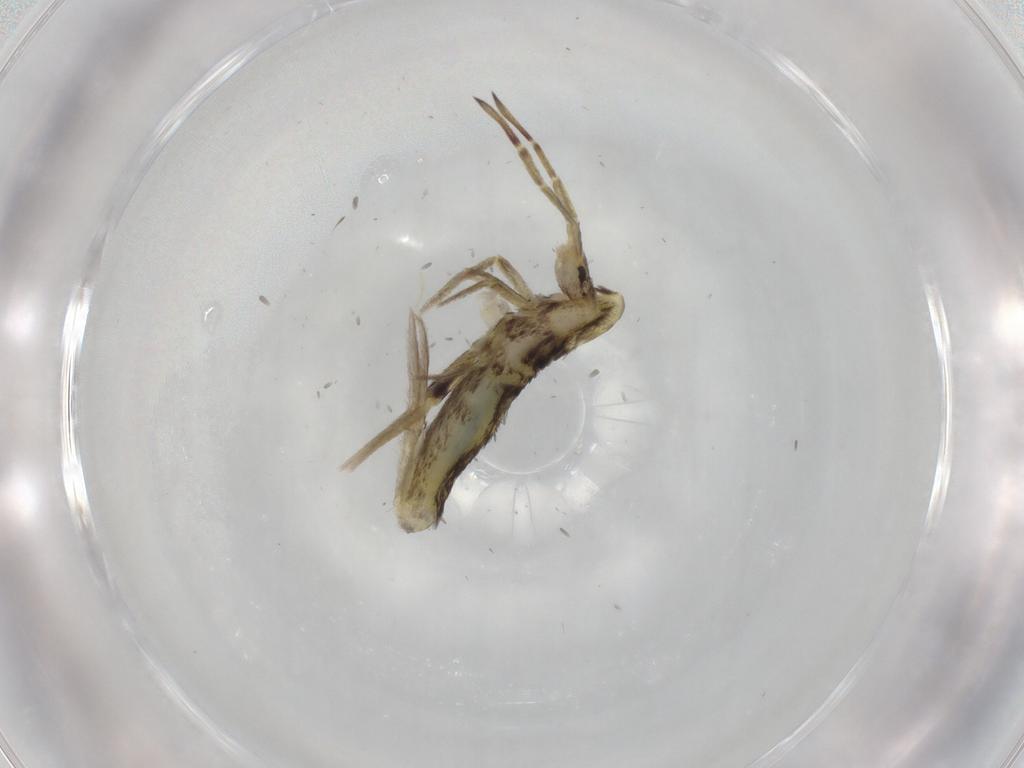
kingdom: Animalia
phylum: Arthropoda
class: Collembola
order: Entomobryomorpha
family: Entomobryidae
